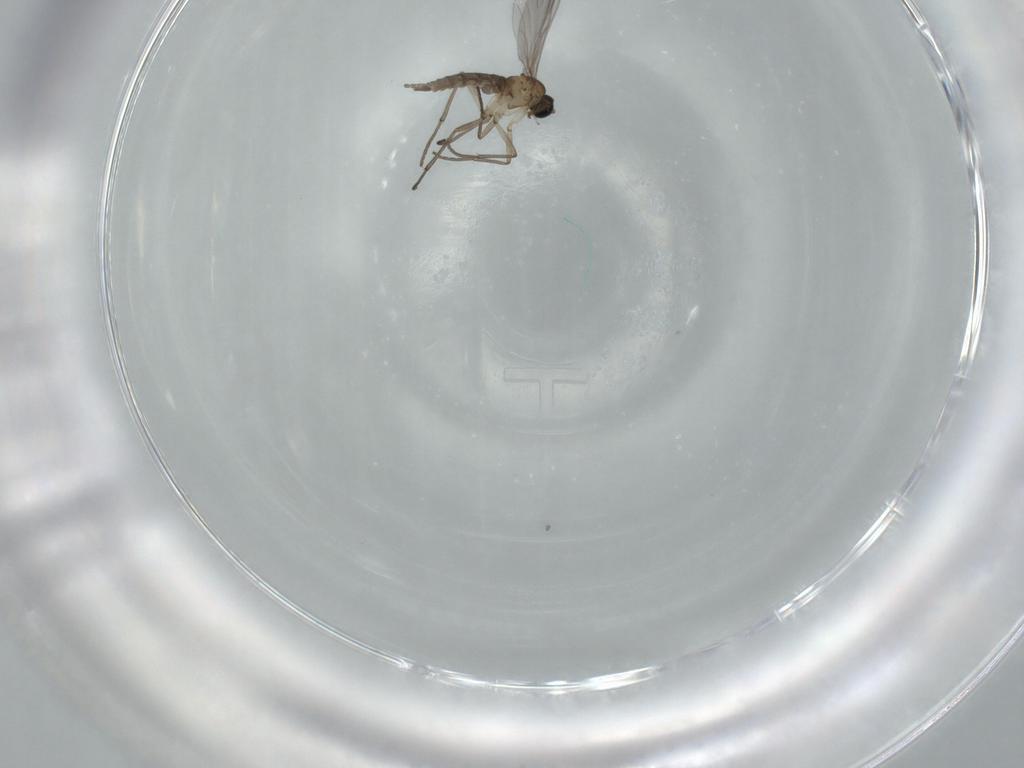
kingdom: Animalia
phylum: Arthropoda
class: Insecta
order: Diptera
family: Sciaridae
